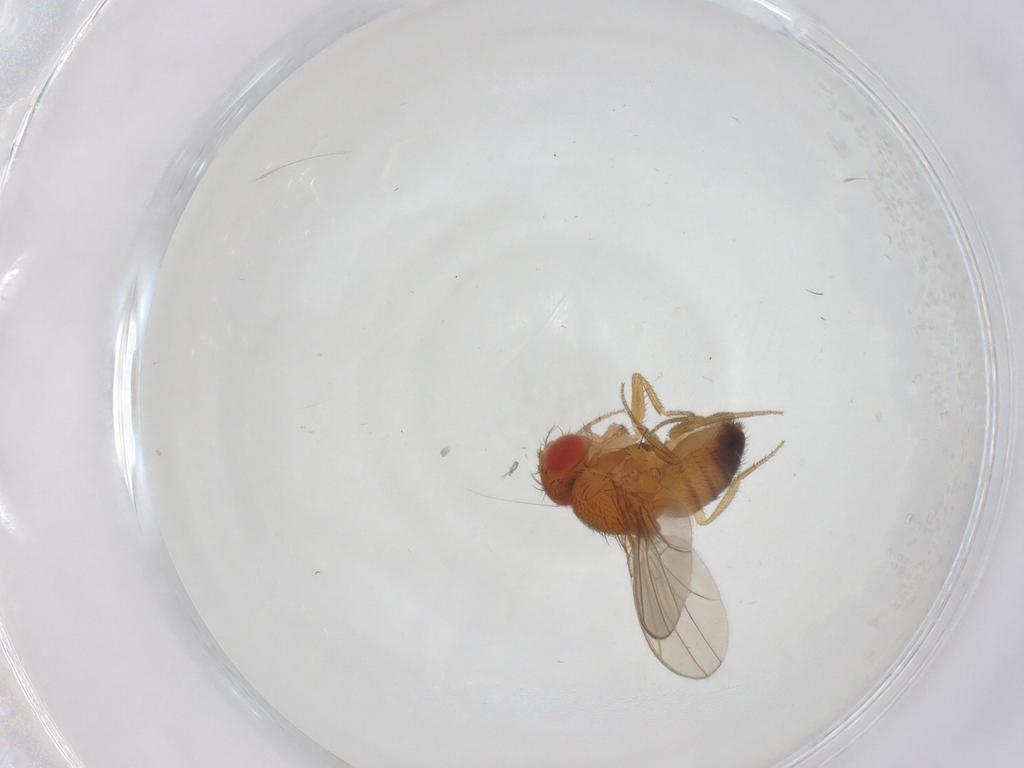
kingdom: Animalia
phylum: Arthropoda
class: Insecta
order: Diptera
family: Drosophilidae
